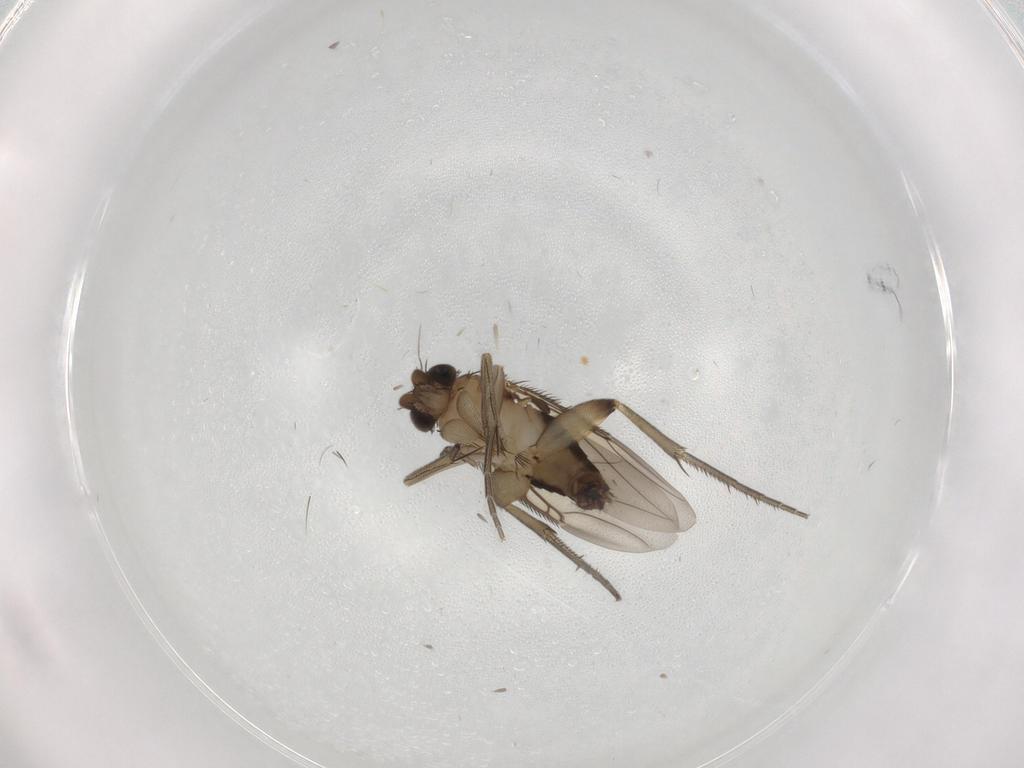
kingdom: Animalia
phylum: Arthropoda
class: Insecta
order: Diptera
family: Phoridae
